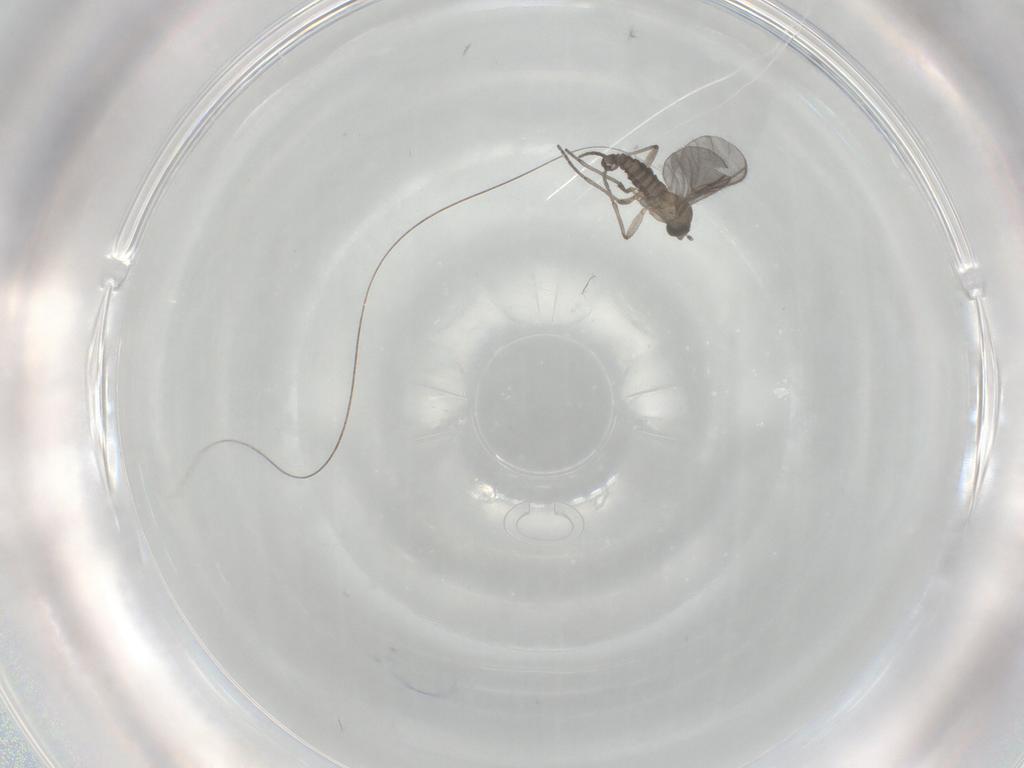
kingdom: Animalia
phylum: Arthropoda
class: Insecta
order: Diptera
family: Sciaridae
